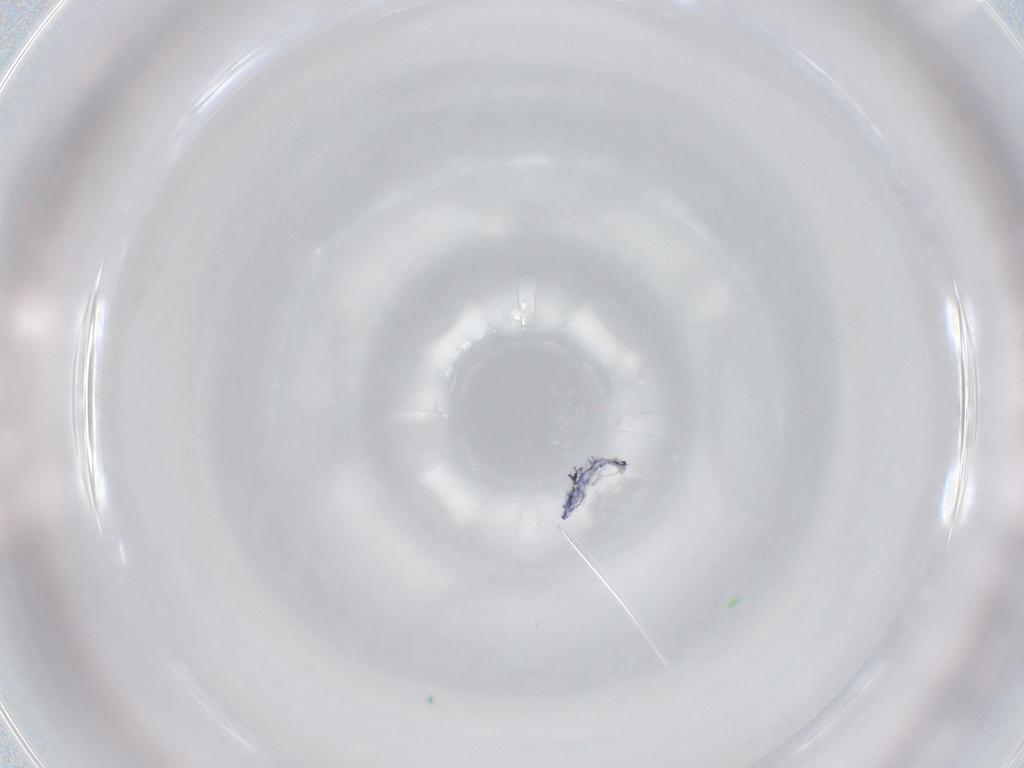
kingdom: Animalia
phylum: Arthropoda
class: Collembola
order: Entomobryomorpha
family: Entomobryidae
